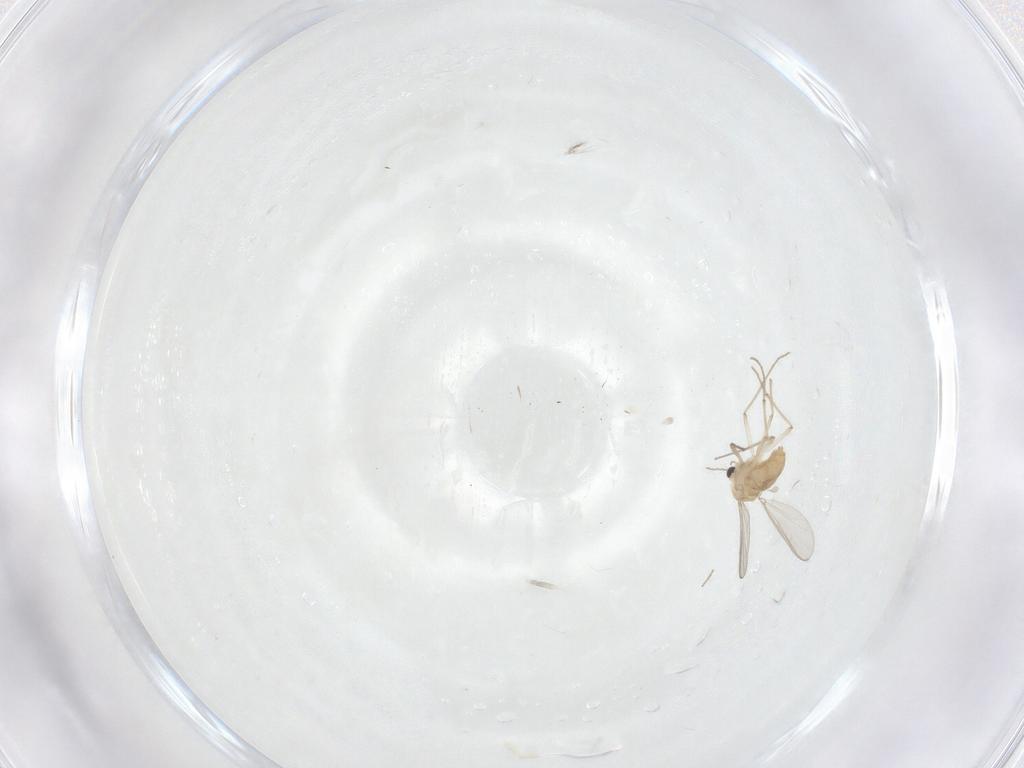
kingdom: Animalia
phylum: Arthropoda
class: Insecta
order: Diptera
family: Chironomidae
